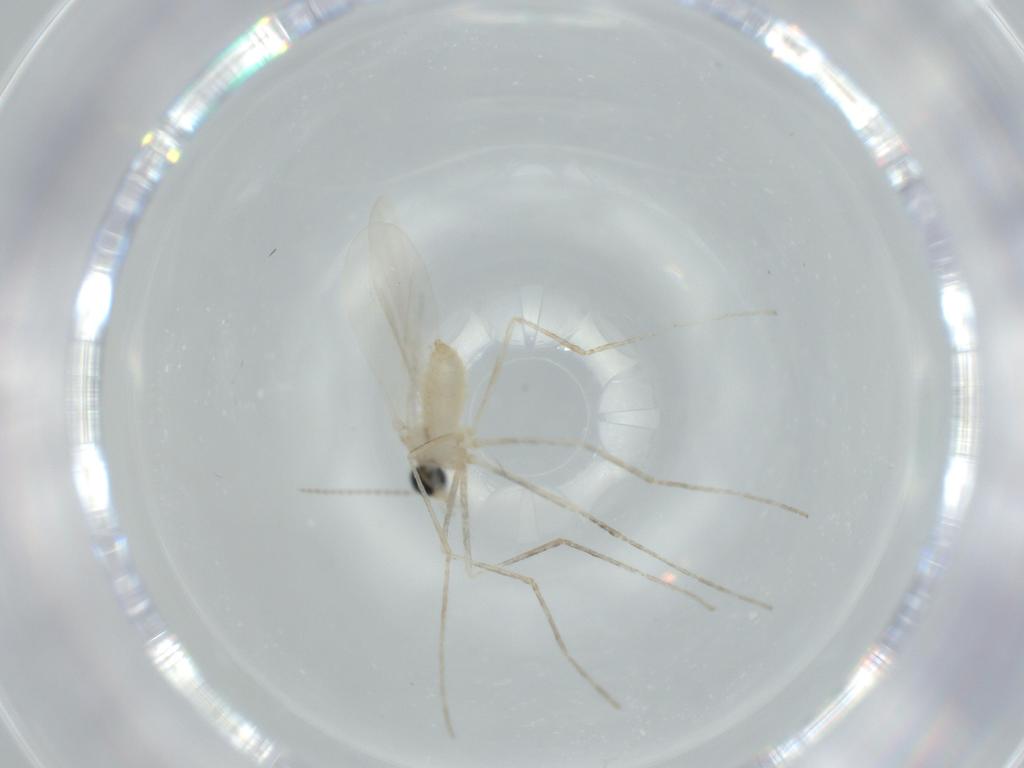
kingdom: Animalia
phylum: Arthropoda
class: Insecta
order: Diptera
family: Cecidomyiidae
